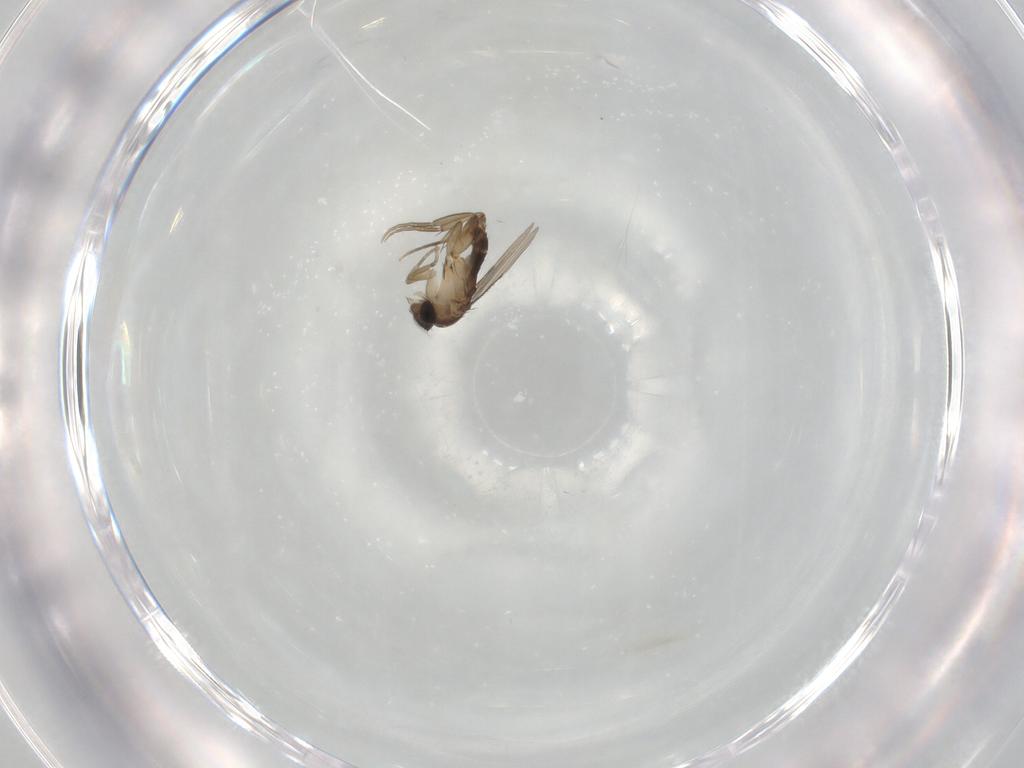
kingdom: Animalia
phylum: Arthropoda
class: Insecta
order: Diptera
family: Phoridae
